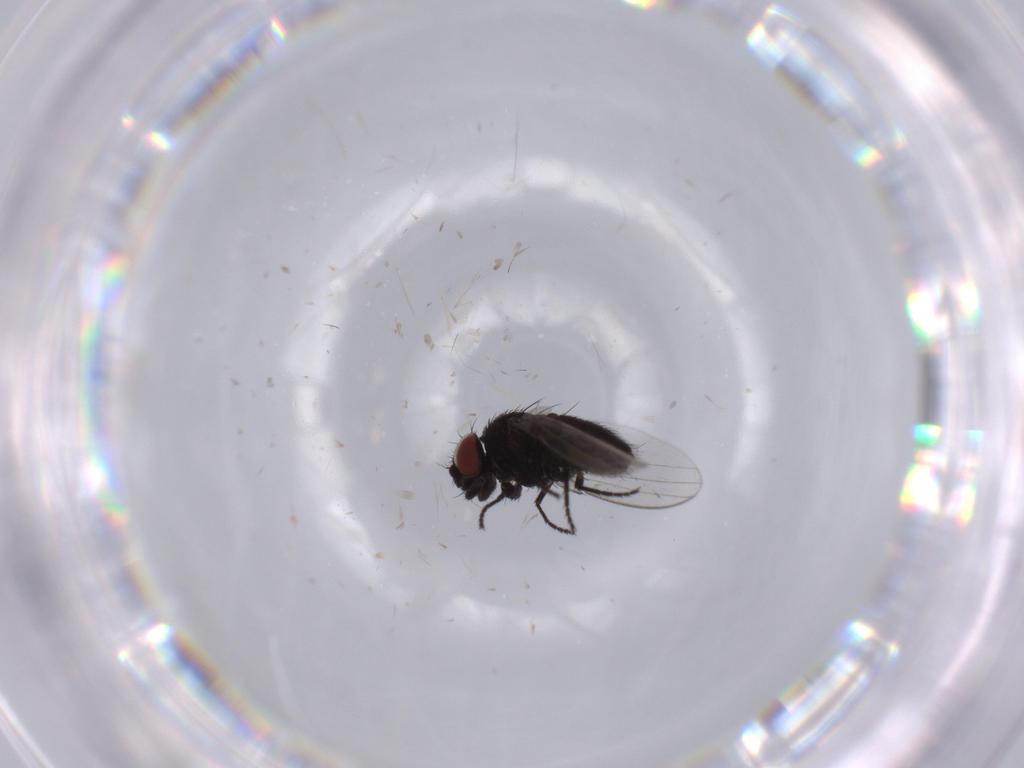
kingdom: Animalia
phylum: Arthropoda
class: Insecta
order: Diptera
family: Milichiidae
